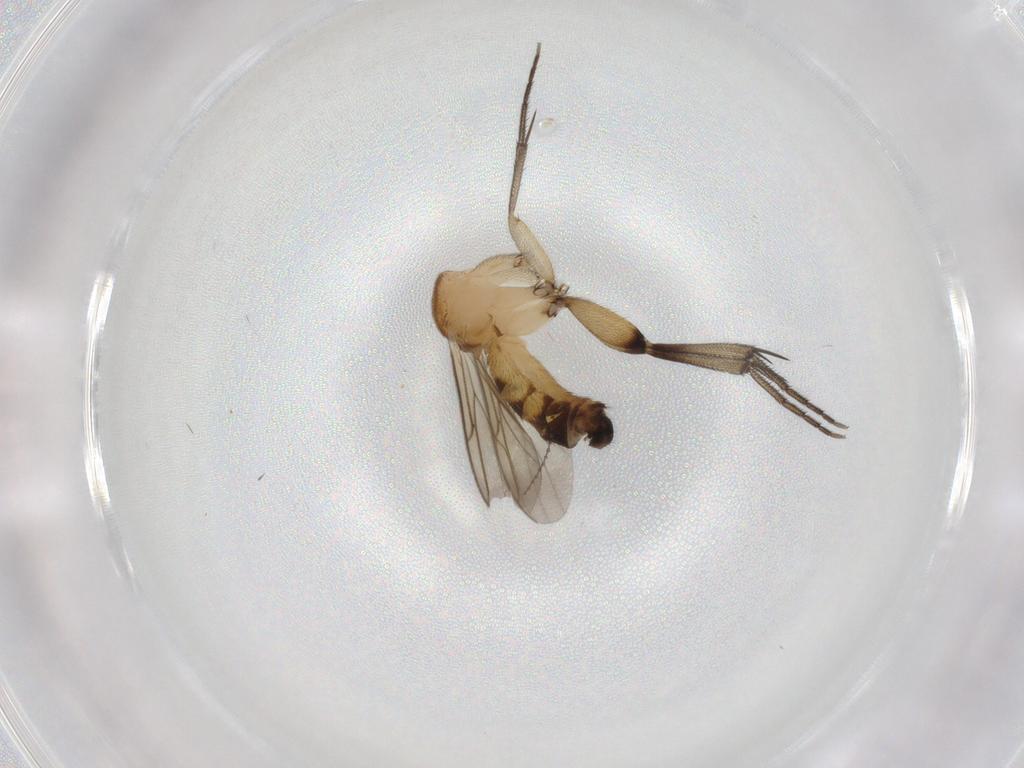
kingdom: Animalia
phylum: Arthropoda
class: Insecta
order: Diptera
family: Mycetophilidae
